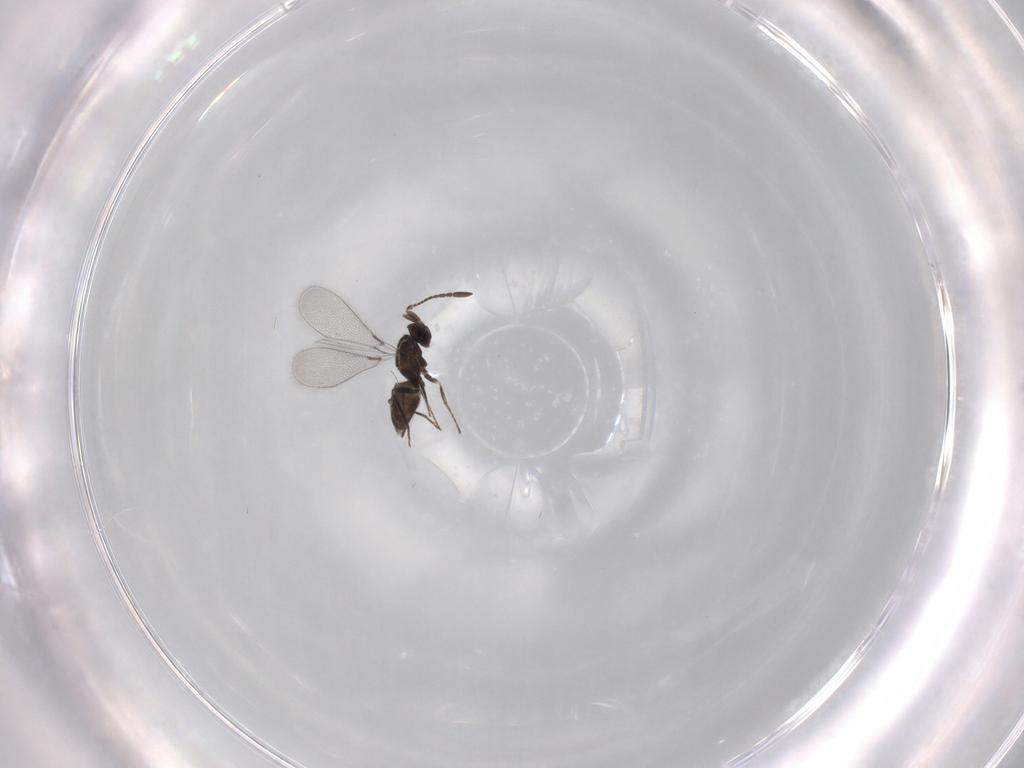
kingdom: Animalia
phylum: Arthropoda
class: Insecta
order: Hymenoptera
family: Mymaridae
